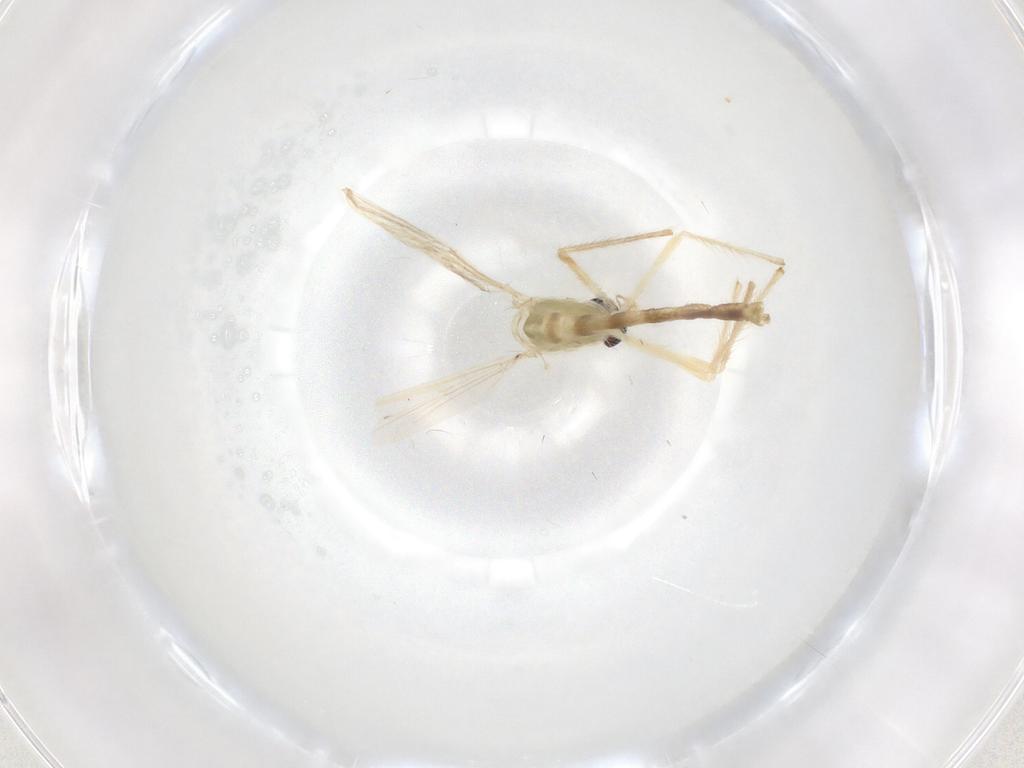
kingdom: Animalia
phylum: Arthropoda
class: Insecta
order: Diptera
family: Chironomidae
